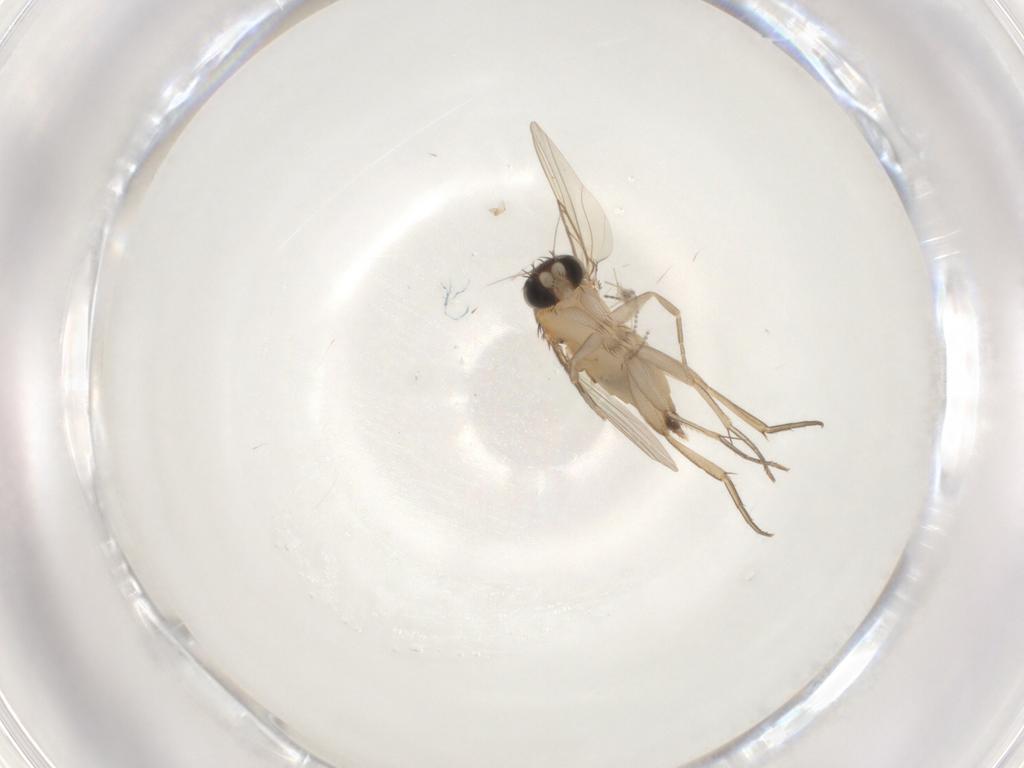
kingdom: Animalia
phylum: Arthropoda
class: Insecta
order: Diptera
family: Phoridae
